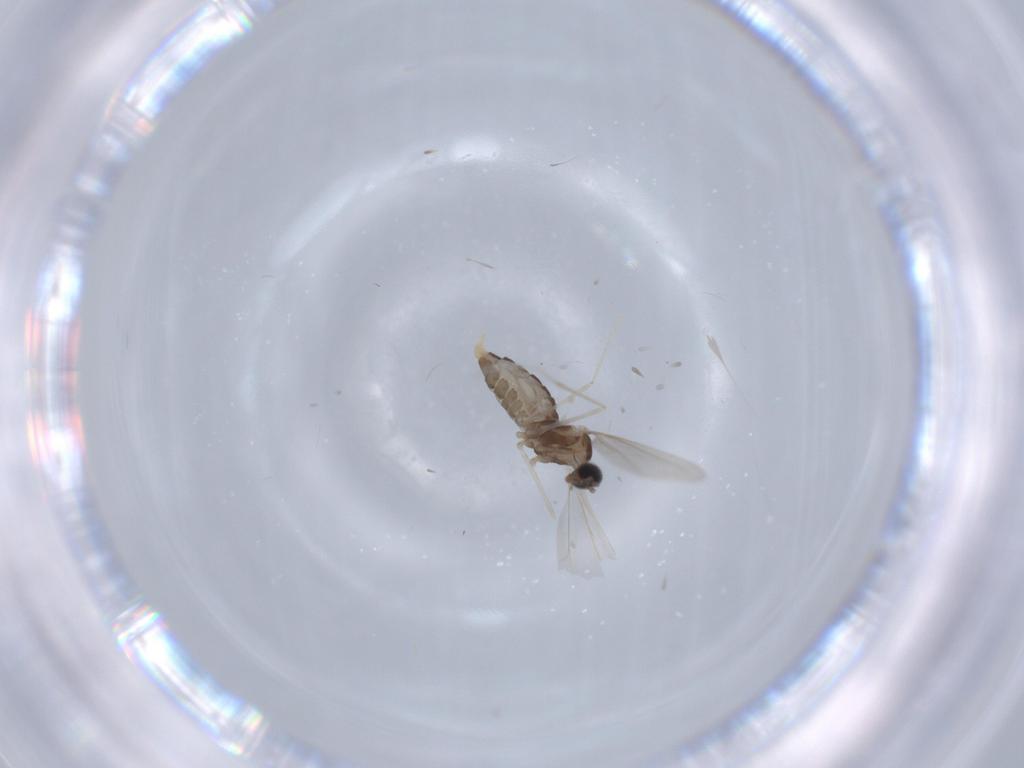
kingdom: Animalia
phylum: Arthropoda
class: Insecta
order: Diptera
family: Cecidomyiidae
